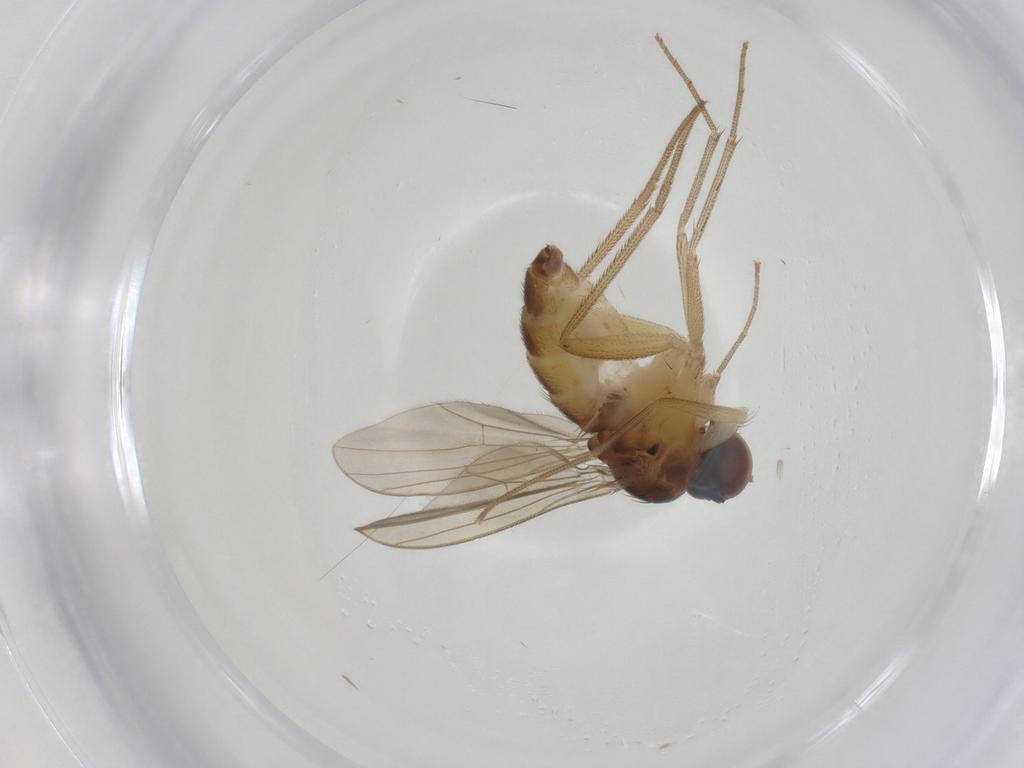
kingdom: Animalia
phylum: Arthropoda
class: Insecta
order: Diptera
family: Dolichopodidae
